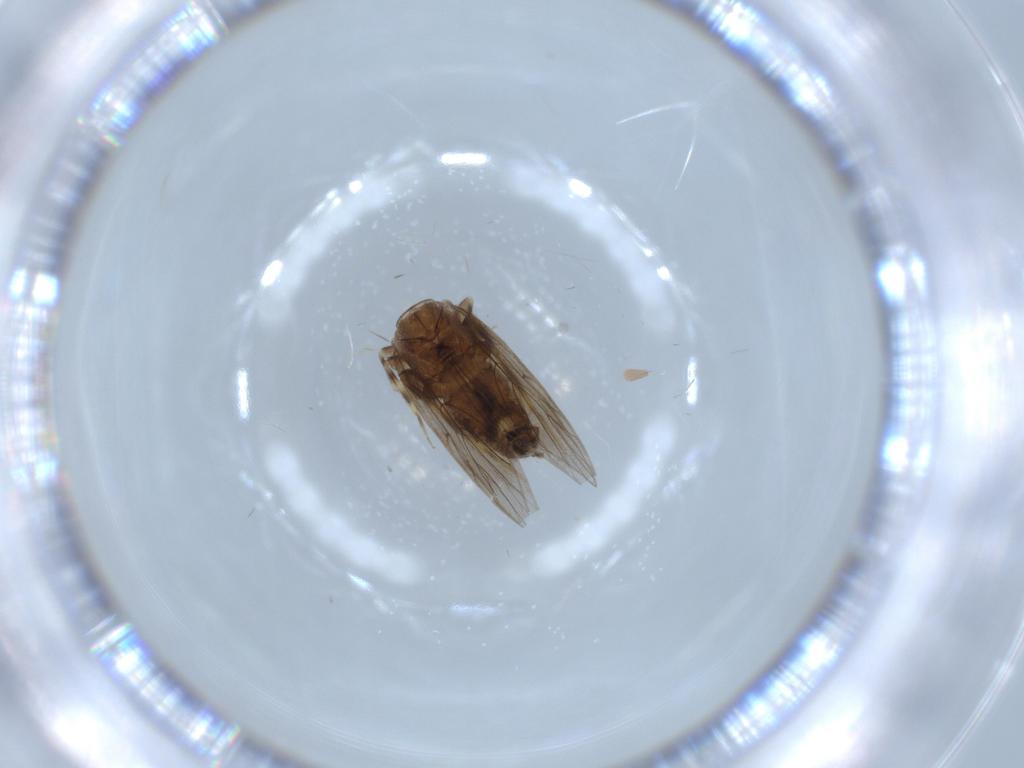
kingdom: Animalia
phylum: Arthropoda
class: Insecta
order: Psocodea
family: Lepidopsocidae
